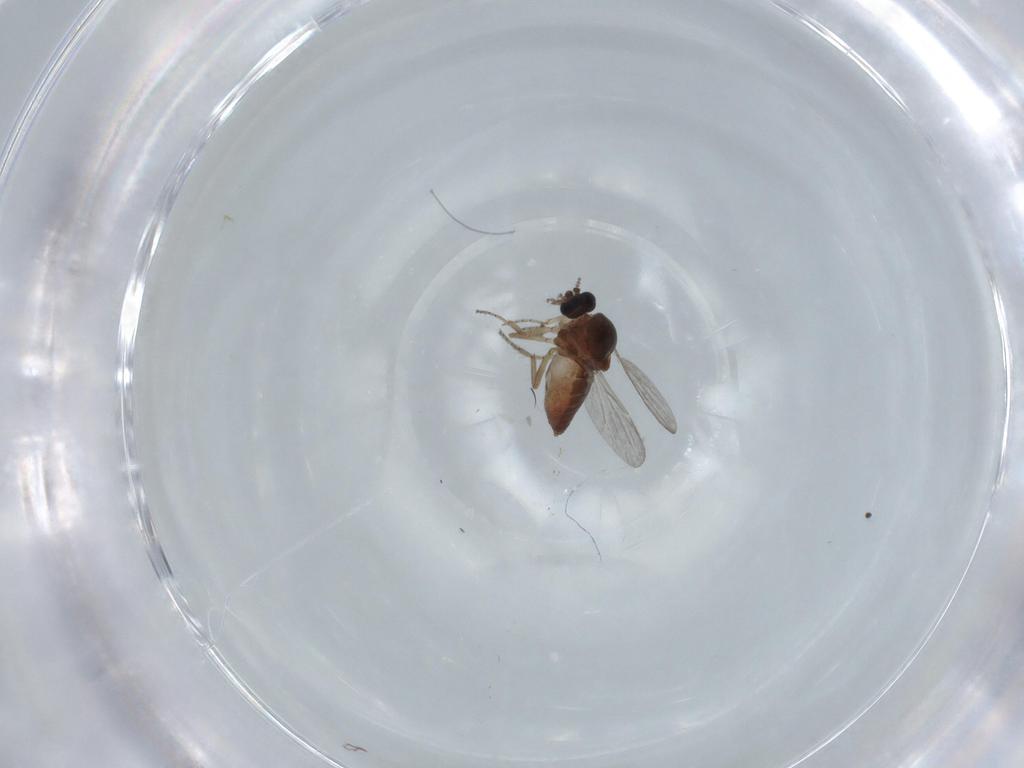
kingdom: Animalia
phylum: Arthropoda
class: Insecta
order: Diptera
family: Ceratopogonidae
